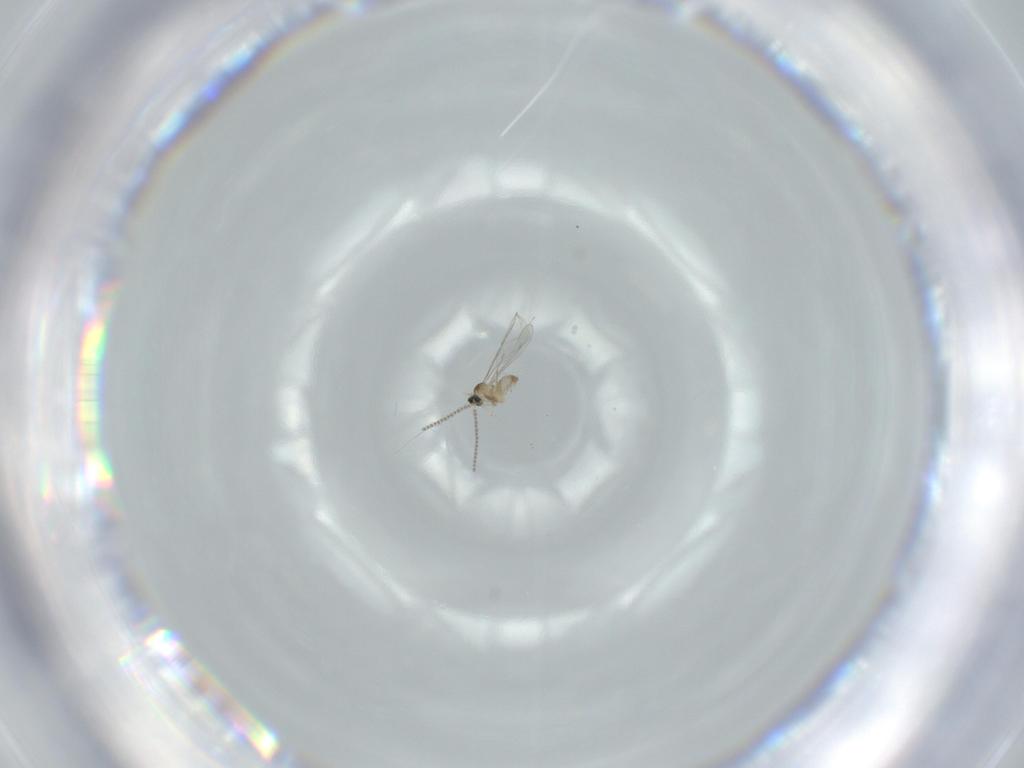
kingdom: Animalia
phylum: Arthropoda
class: Insecta
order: Diptera
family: Cecidomyiidae
